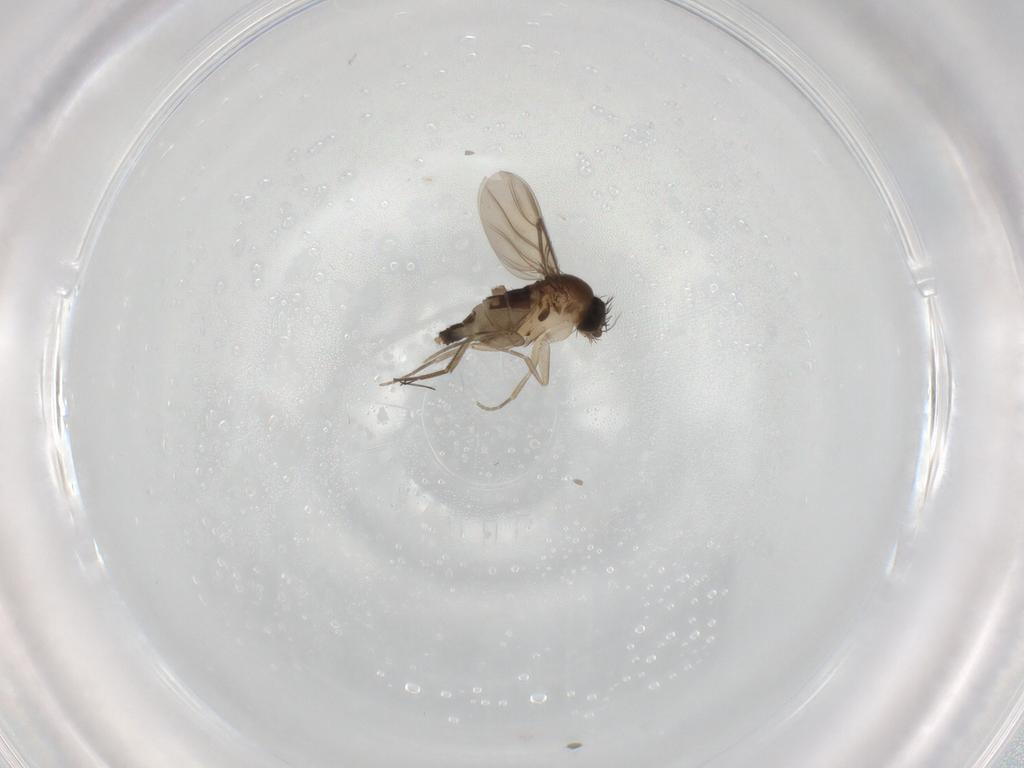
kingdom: Animalia
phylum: Arthropoda
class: Insecta
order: Diptera
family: Phoridae
